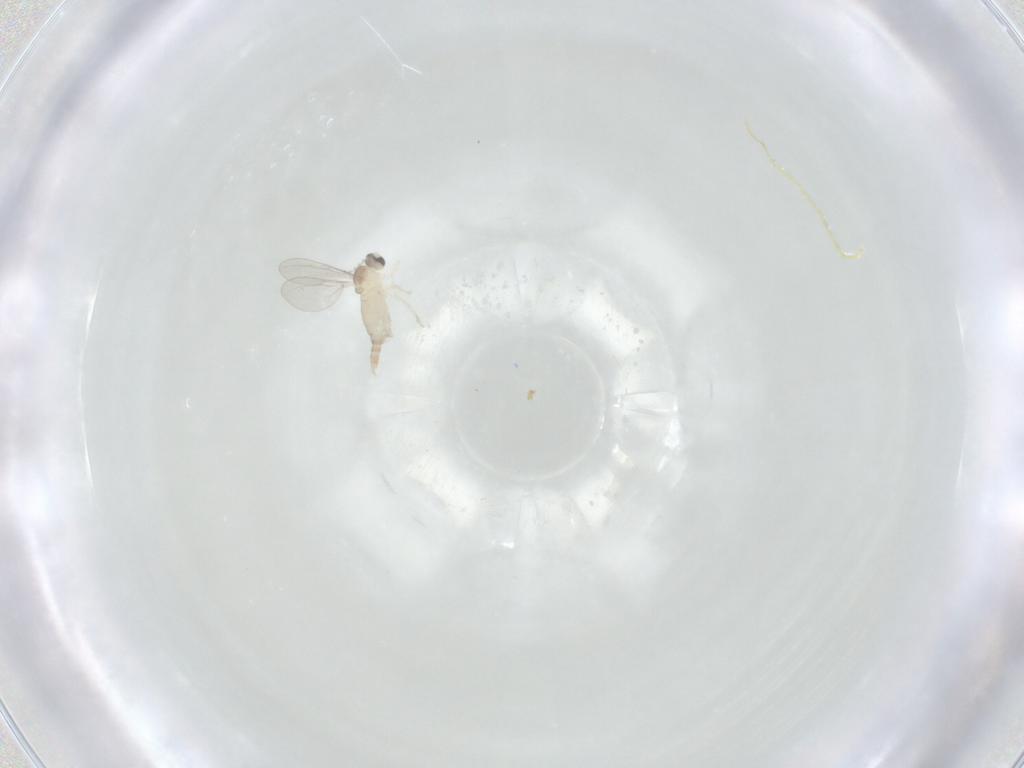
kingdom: Animalia
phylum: Arthropoda
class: Insecta
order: Diptera
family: Cecidomyiidae
